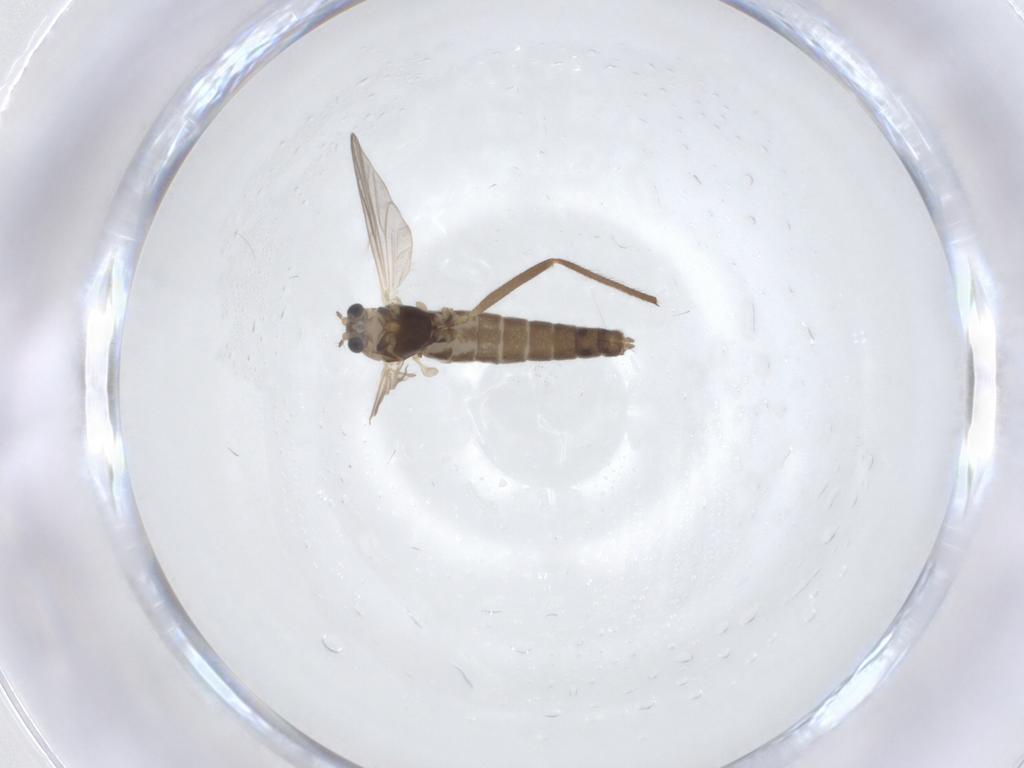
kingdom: Animalia
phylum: Arthropoda
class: Insecta
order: Diptera
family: Chironomidae
